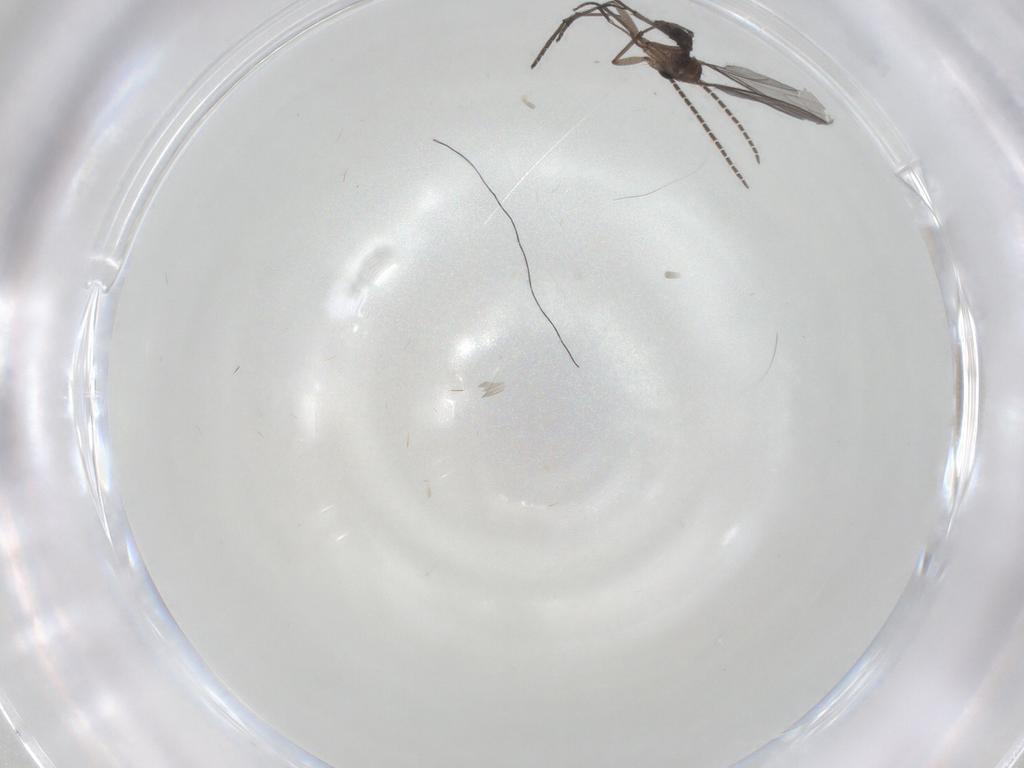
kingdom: Animalia
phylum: Arthropoda
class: Insecta
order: Diptera
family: Sciaridae
